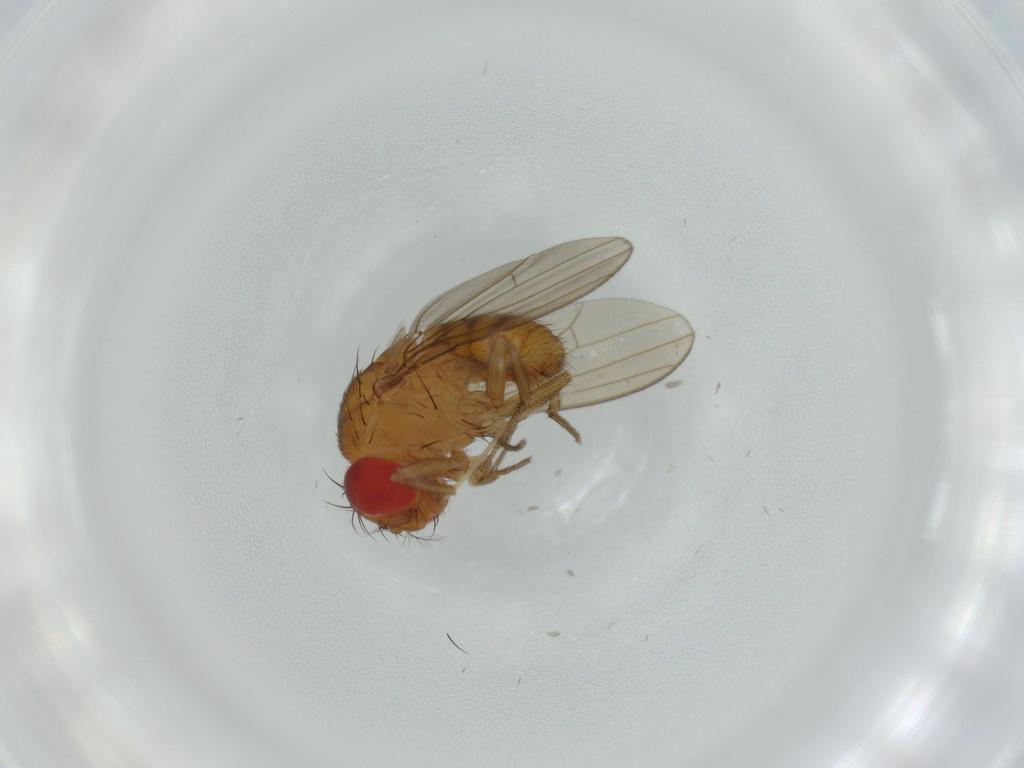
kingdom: Animalia
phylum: Arthropoda
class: Insecta
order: Diptera
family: Drosophilidae
